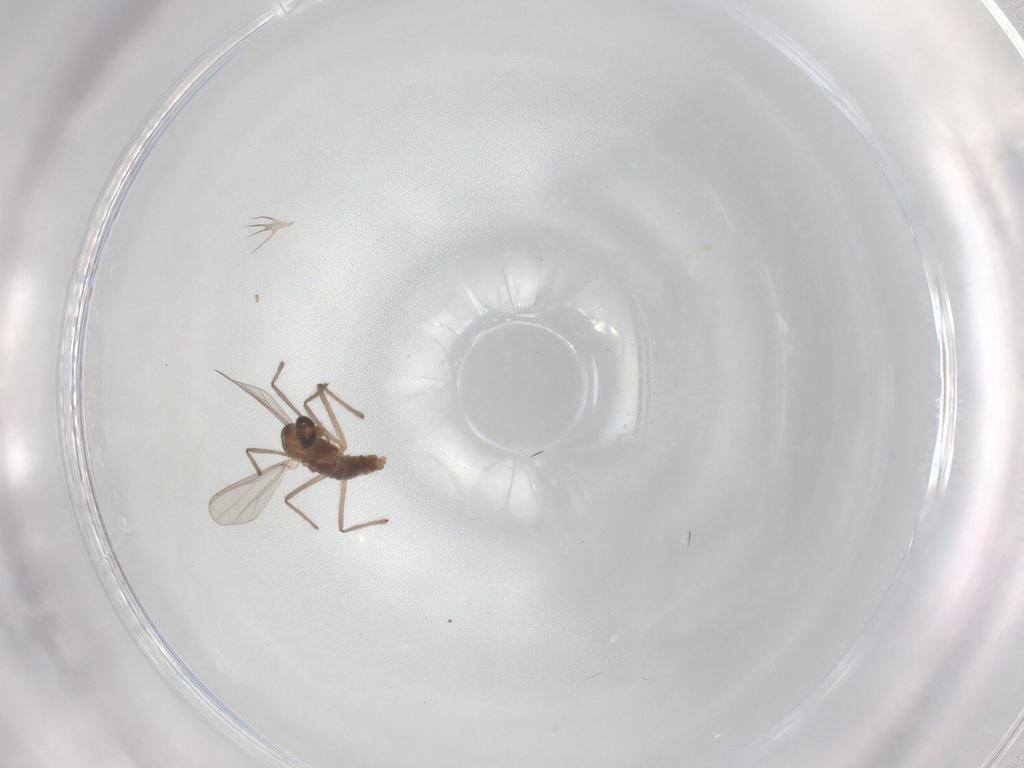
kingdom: Animalia
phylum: Arthropoda
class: Insecta
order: Diptera
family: Chironomidae
